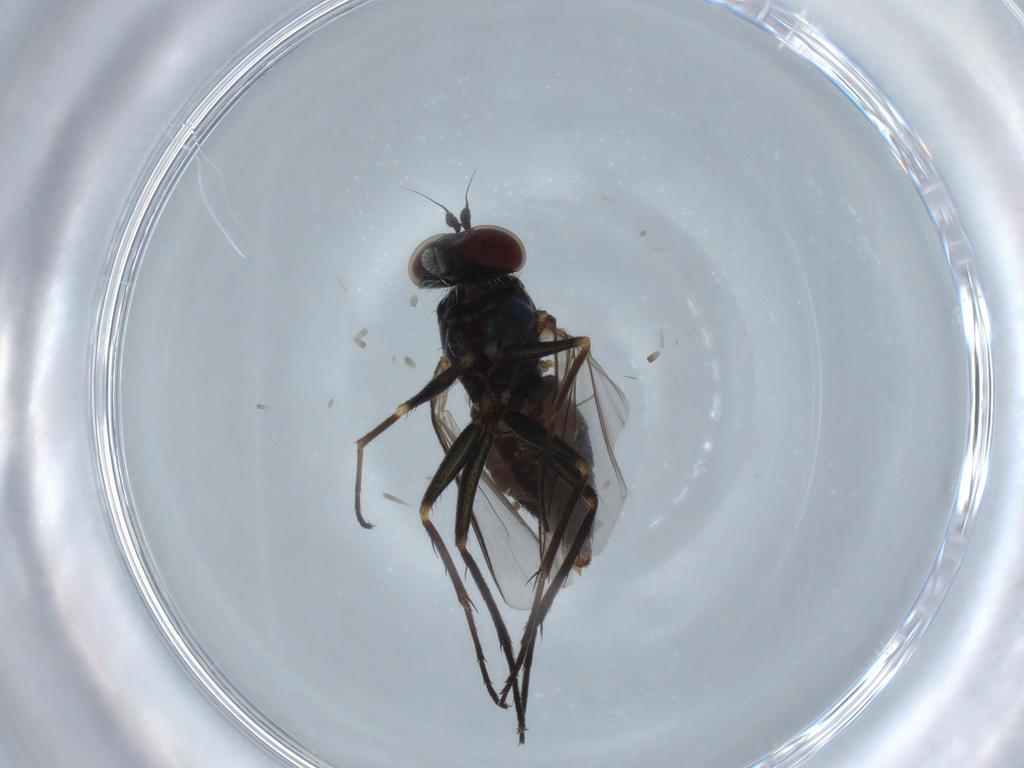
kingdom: Animalia
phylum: Arthropoda
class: Insecta
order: Diptera
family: Dolichopodidae
